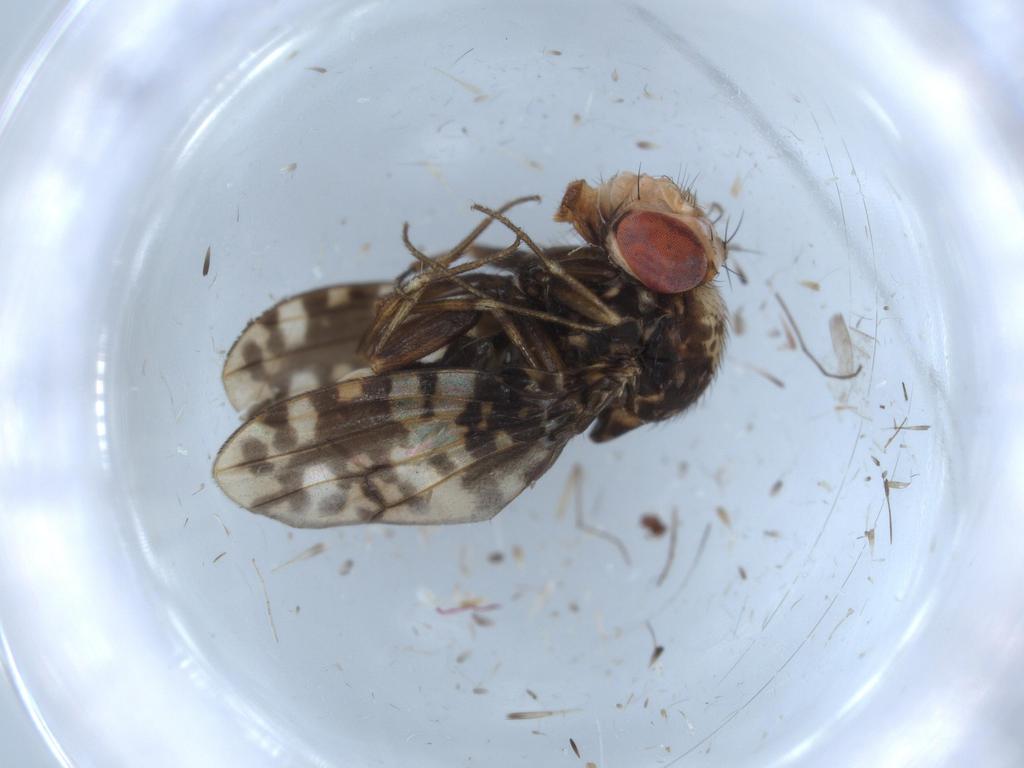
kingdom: Animalia
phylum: Arthropoda
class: Insecta
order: Diptera
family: Drosophilidae
